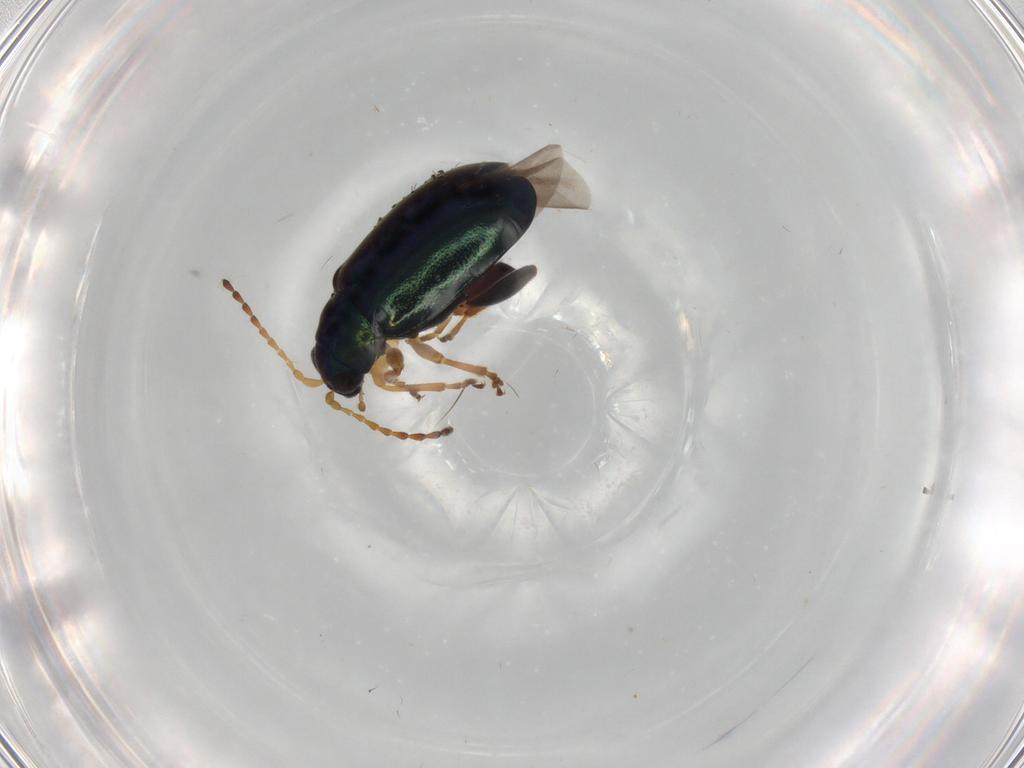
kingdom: Animalia
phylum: Arthropoda
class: Insecta
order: Coleoptera
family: Chrysomelidae
